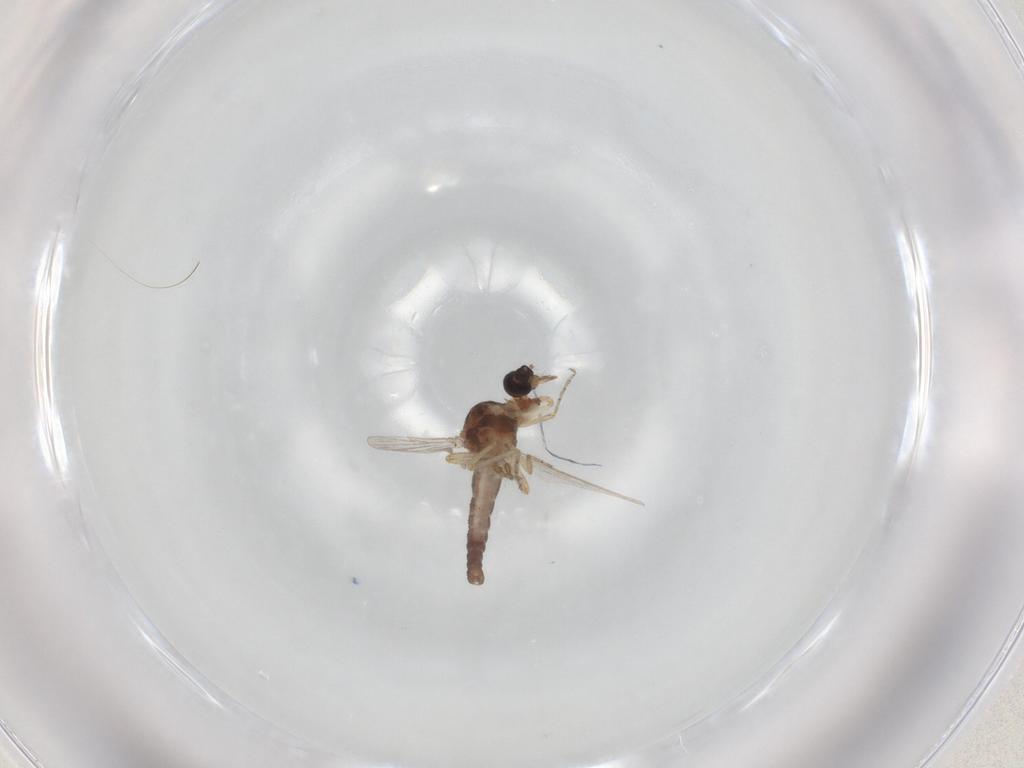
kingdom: Animalia
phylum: Arthropoda
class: Insecta
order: Diptera
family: Ceratopogonidae
